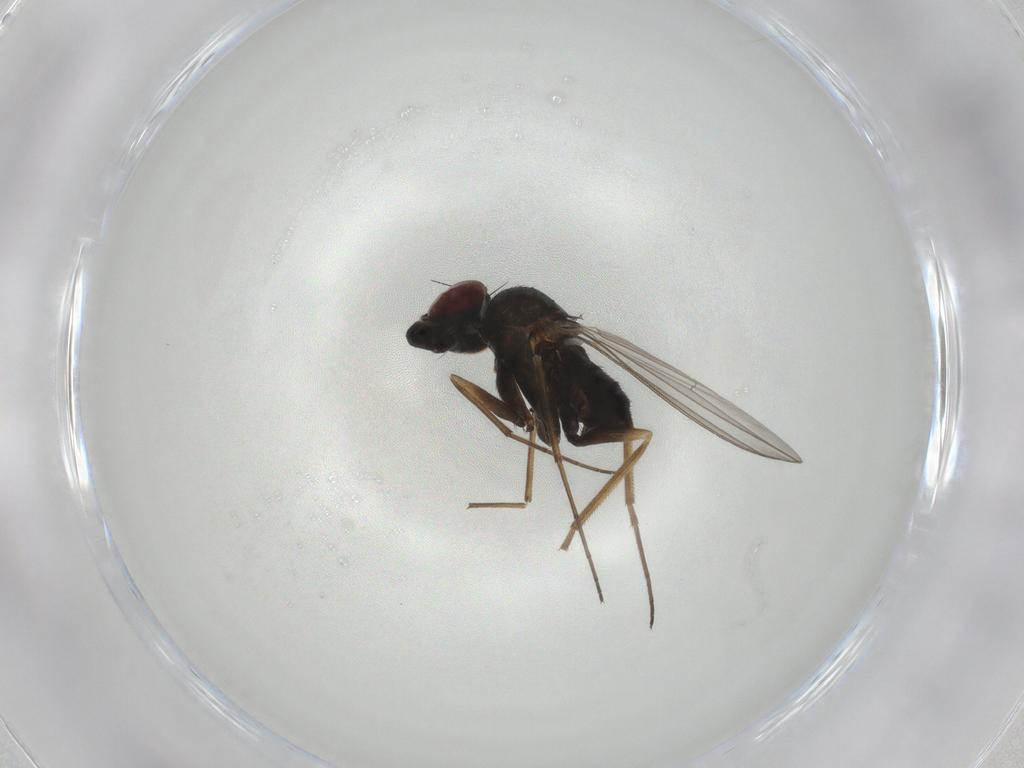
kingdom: Animalia
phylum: Arthropoda
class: Insecta
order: Diptera
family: Dolichopodidae
